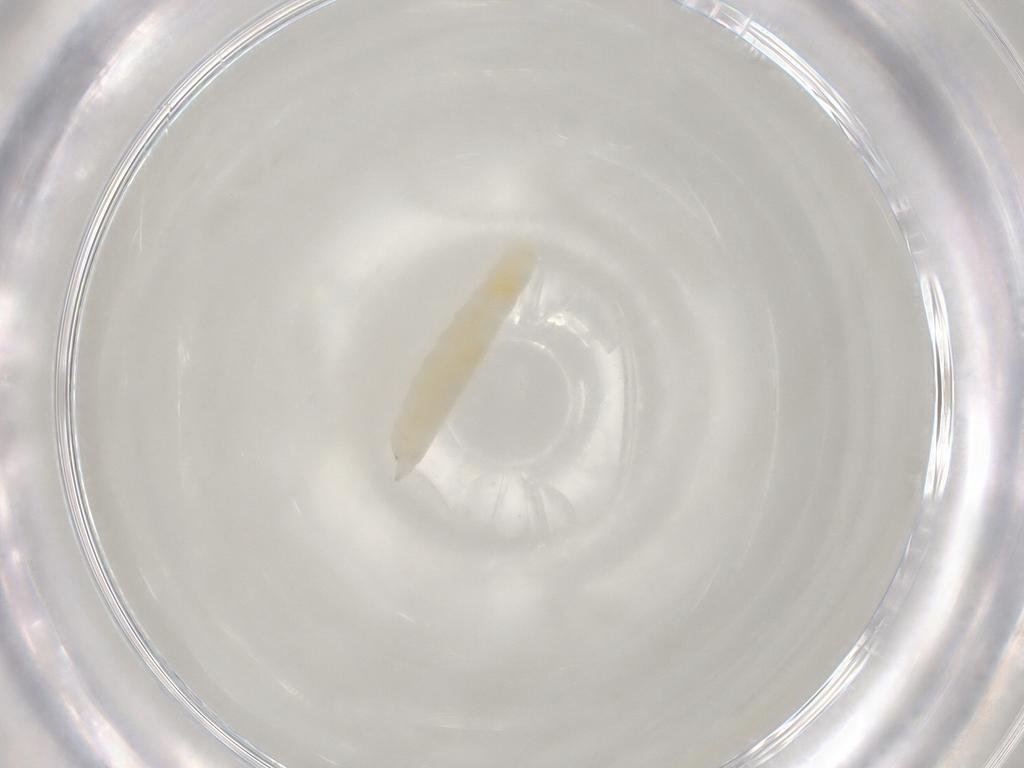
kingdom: Animalia
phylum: Arthropoda
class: Insecta
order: Diptera
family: Cecidomyiidae
